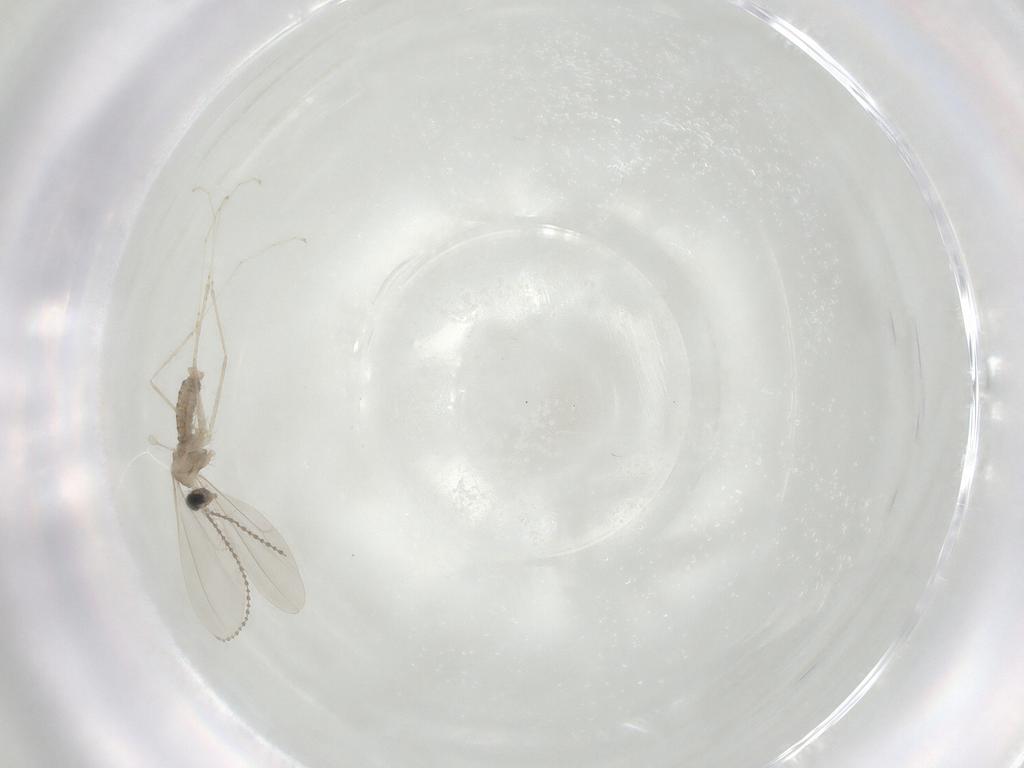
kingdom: Animalia
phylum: Arthropoda
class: Insecta
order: Diptera
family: Cecidomyiidae
